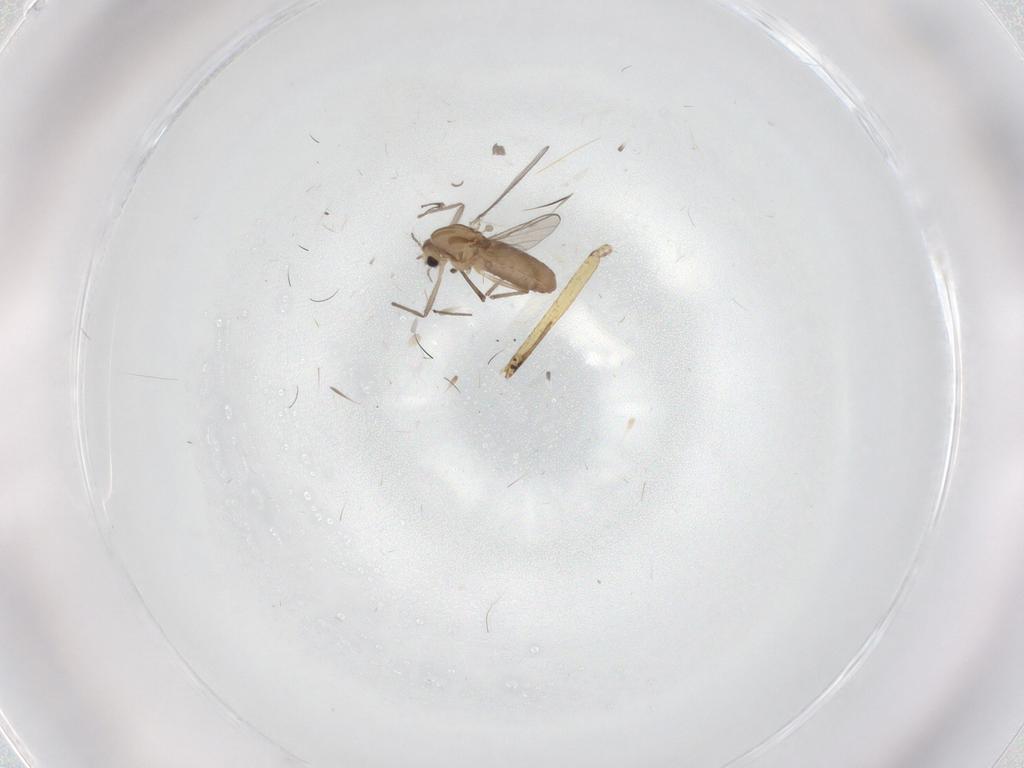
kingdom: Animalia
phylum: Arthropoda
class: Insecta
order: Diptera
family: Chironomidae
